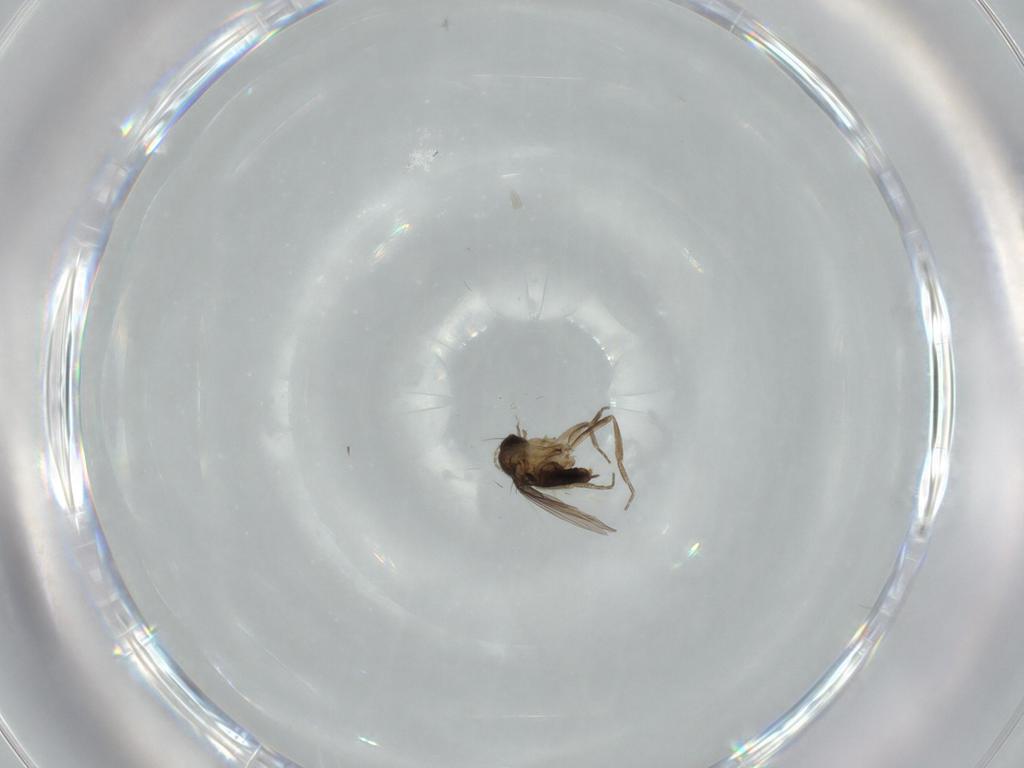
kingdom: Animalia
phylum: Arthropoda
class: Insecta
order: Diptera
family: Phoridae
